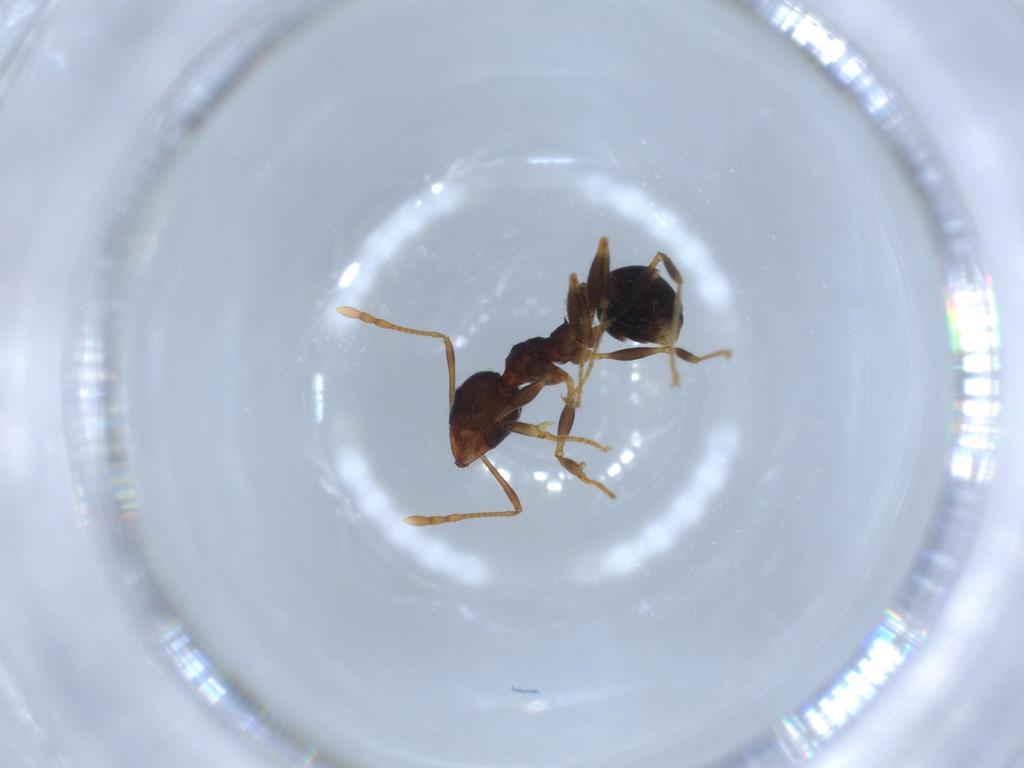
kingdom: Animalia
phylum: Arthropoda
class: Insecta
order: Hymenoptera
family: Formicidae
